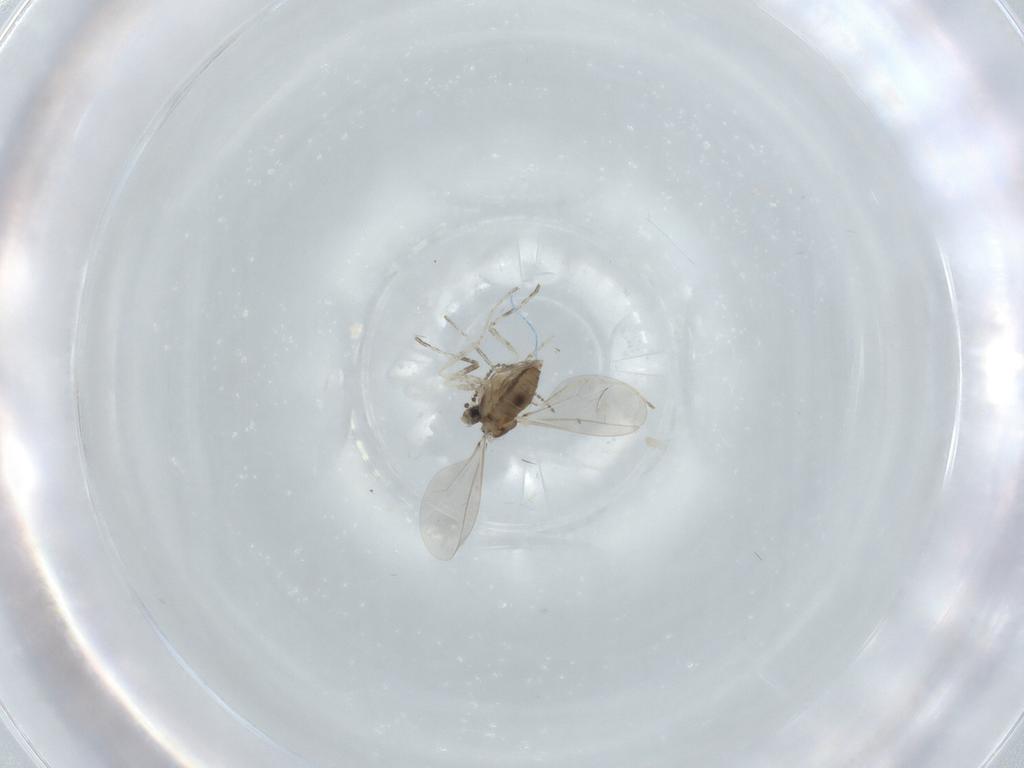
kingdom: Animalia
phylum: Arthropoda
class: Insecta
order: Diptera
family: Cecidomyiidae
